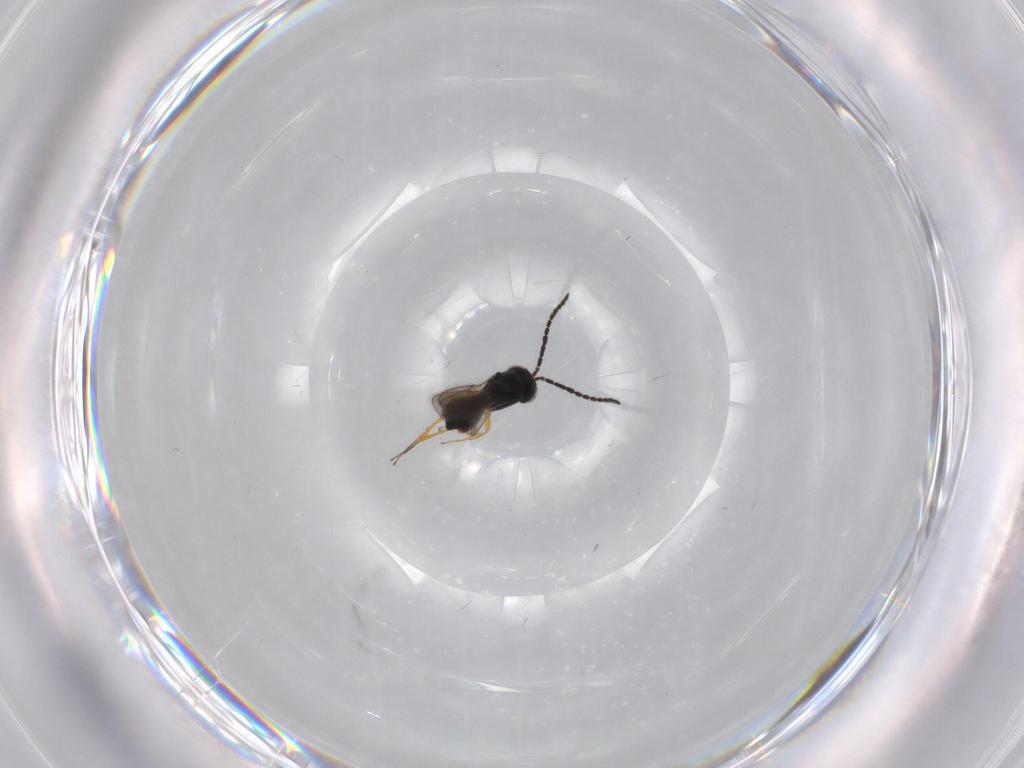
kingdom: Animalia
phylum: Arthropoda
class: Insecta
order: Hymenoptera
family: Scelionidae
